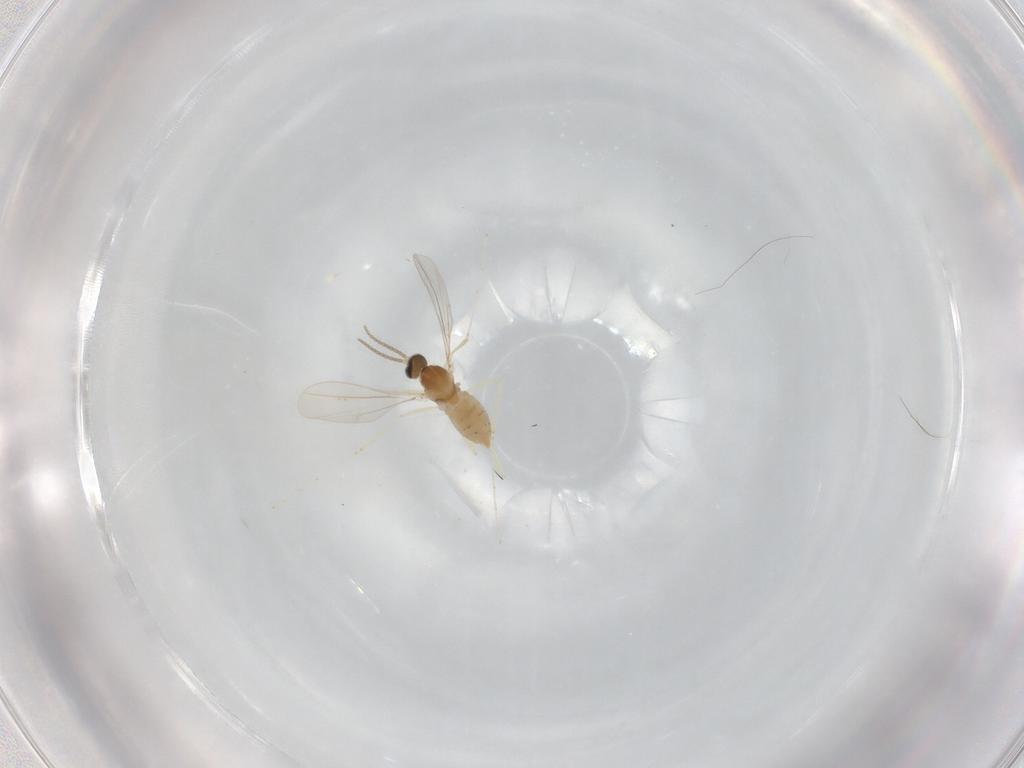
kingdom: Animalia
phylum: Arthropoda
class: Insecta
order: Diptera
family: Cecidomyiidae
